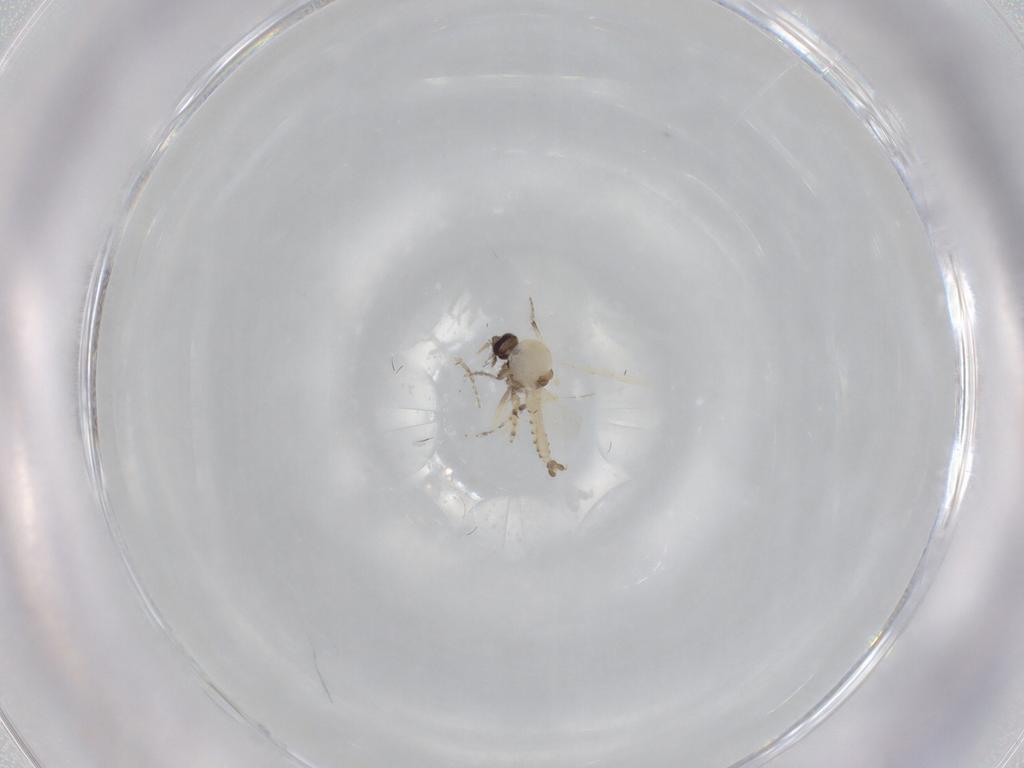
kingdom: Animalia
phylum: Arthropoda
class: Insecta
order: Diptera
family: Ceratopogonidae
